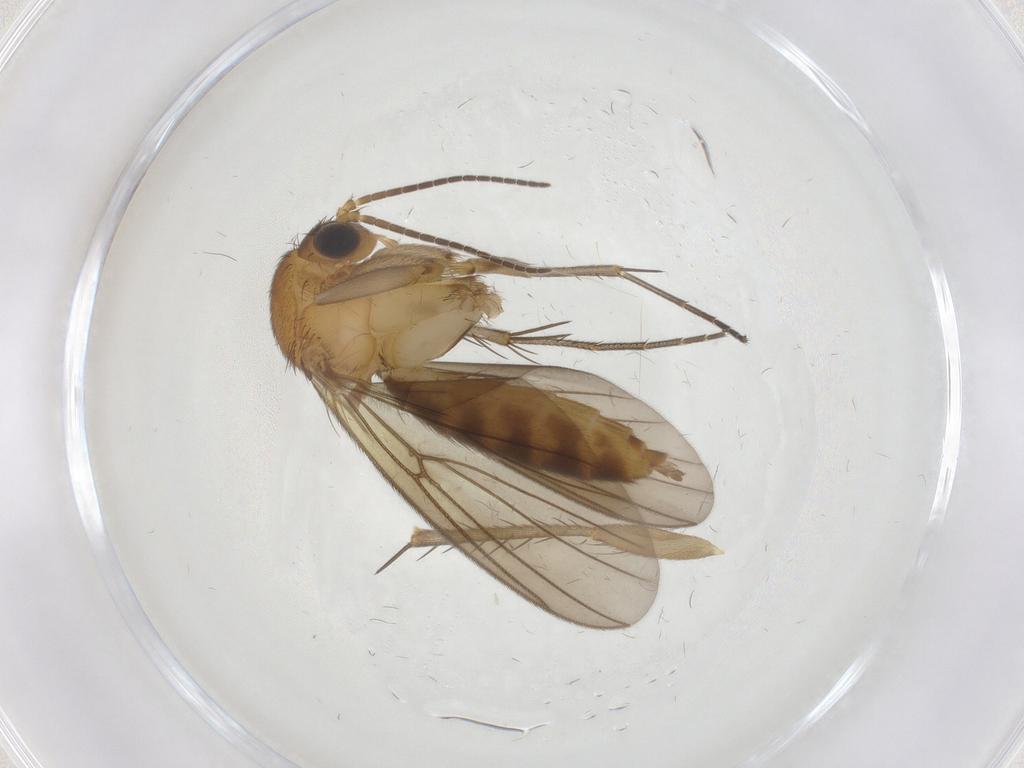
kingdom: Animalia
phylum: Arthropoda
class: Insecta
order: Diptera
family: Mycetophilidae
